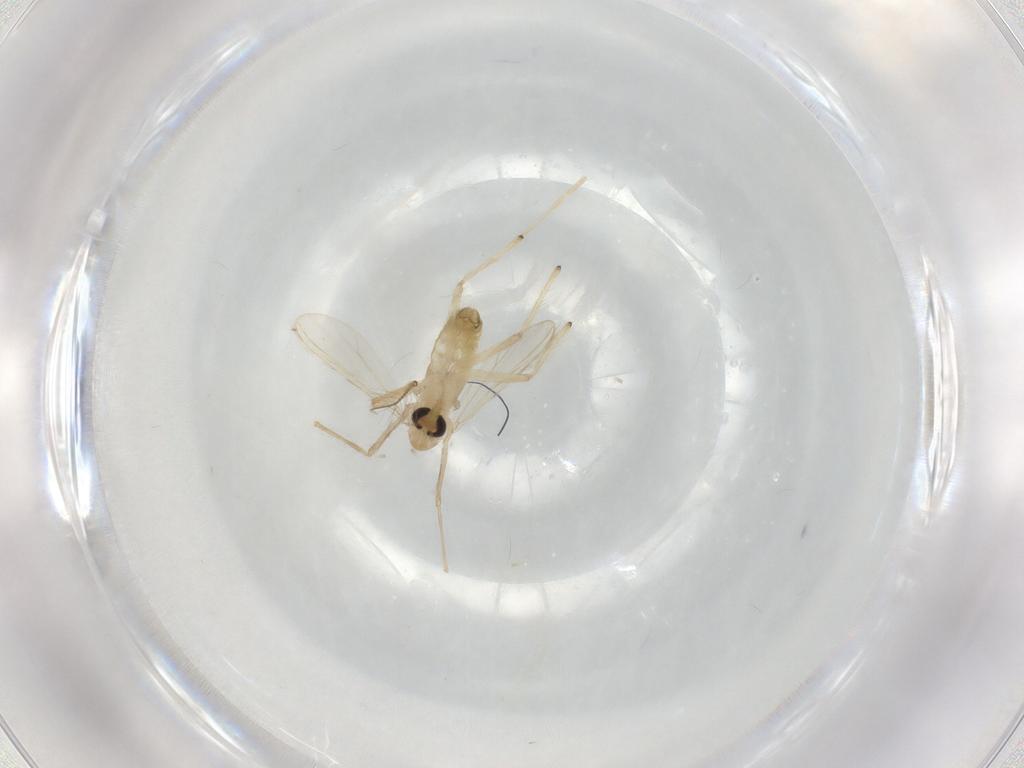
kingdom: Animalia
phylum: Arthropoda
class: Insecta
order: Diptera
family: Chironomidae
